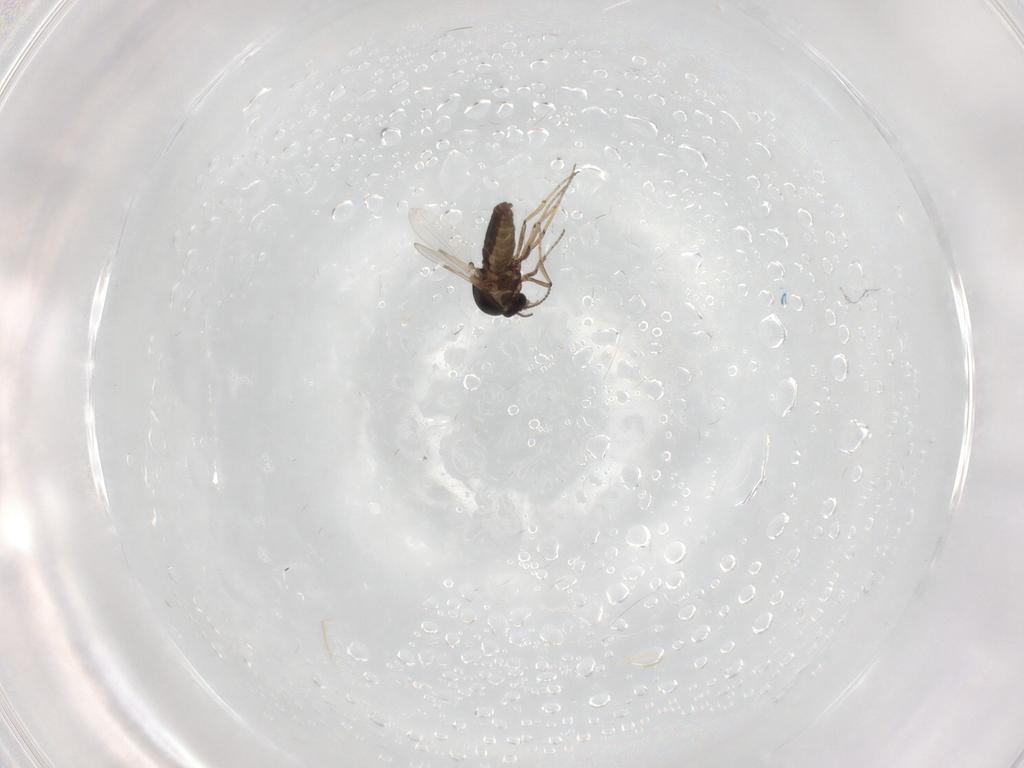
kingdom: Animalia
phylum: Arthropoda
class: Insecta
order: Diptera
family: Ceratopogonidae
